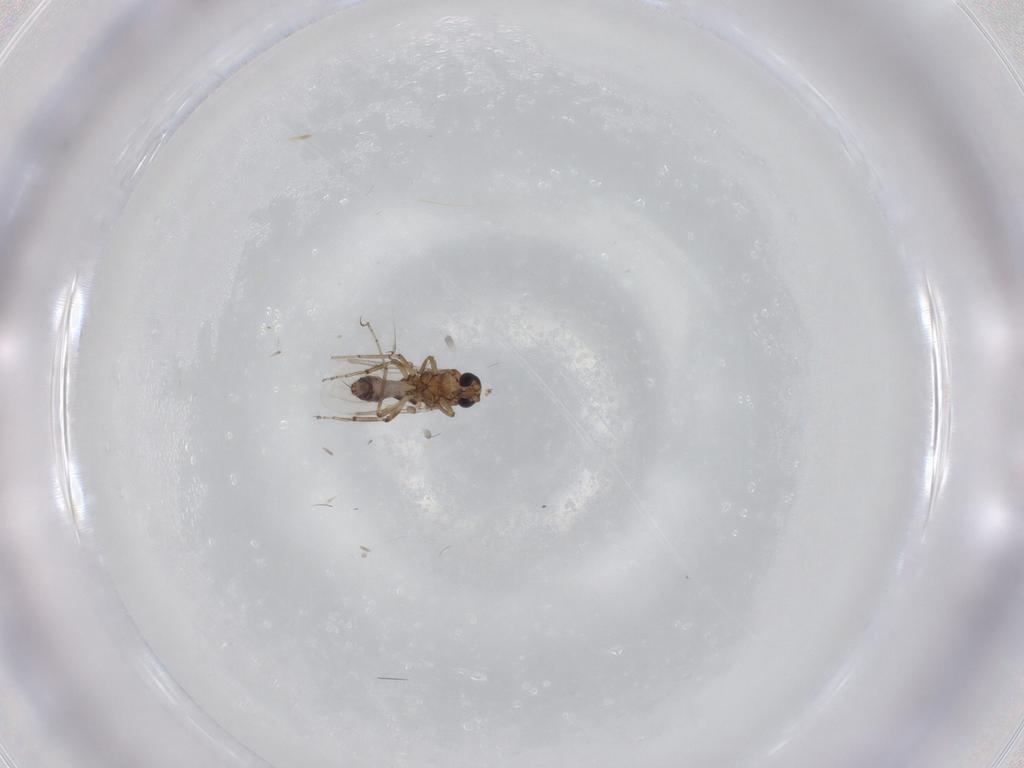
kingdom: Animalia
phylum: Arthropoda
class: Insecta
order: Diptera
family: Ceratopogonidae
